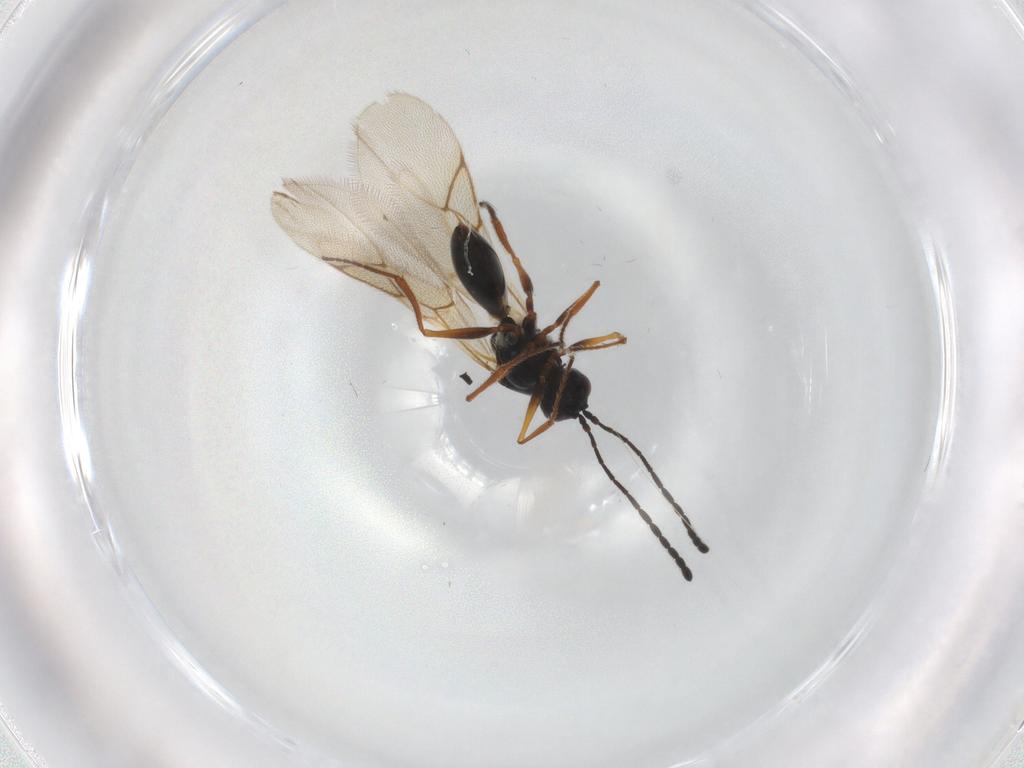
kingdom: Animalia
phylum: Arthropoda
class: Insecta
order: Hymenoptera
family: Figitidae
